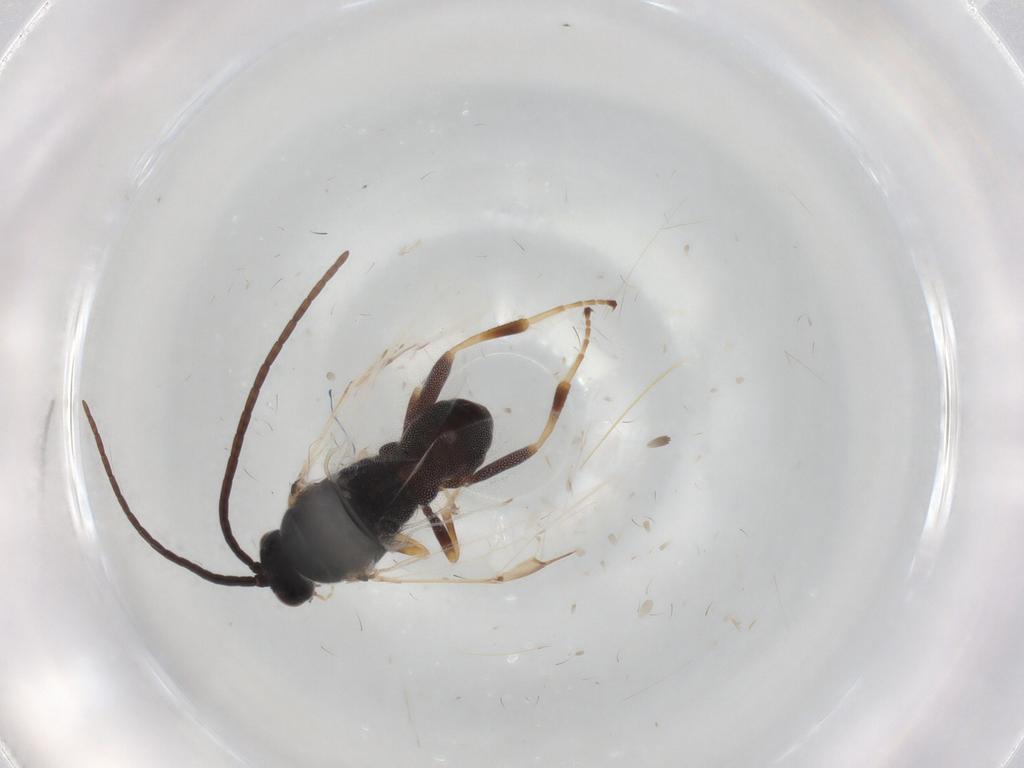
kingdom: Animalia
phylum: Arthropoda
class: Insecta
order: Hymenoptera
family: Braconidae
